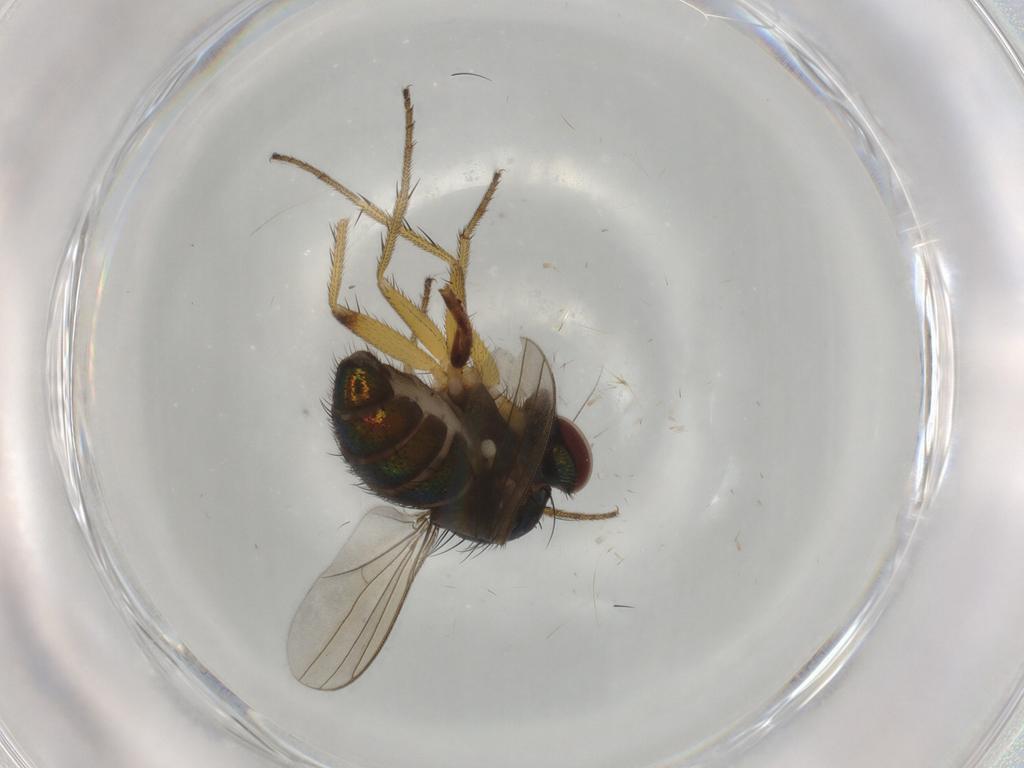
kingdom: Animalia
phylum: Arthropoda
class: Insecta
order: Diptera
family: Dolichopodidae
